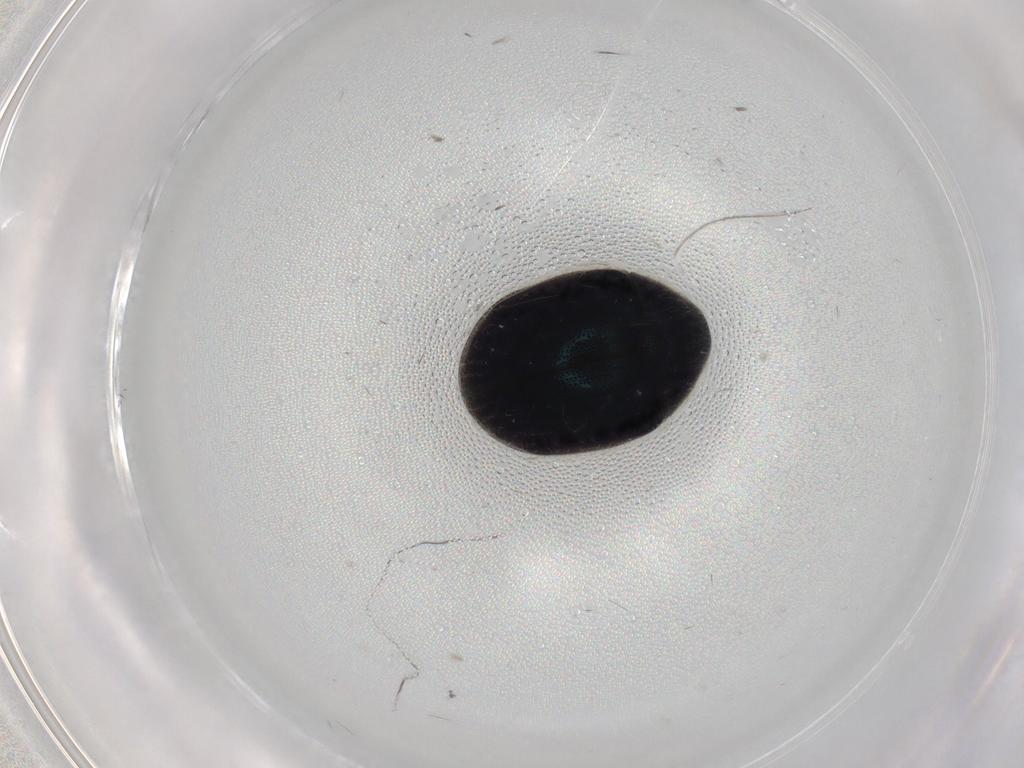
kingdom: Animalia
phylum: Arthropoda
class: Insecta
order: Coleoptera
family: Ptinidae
